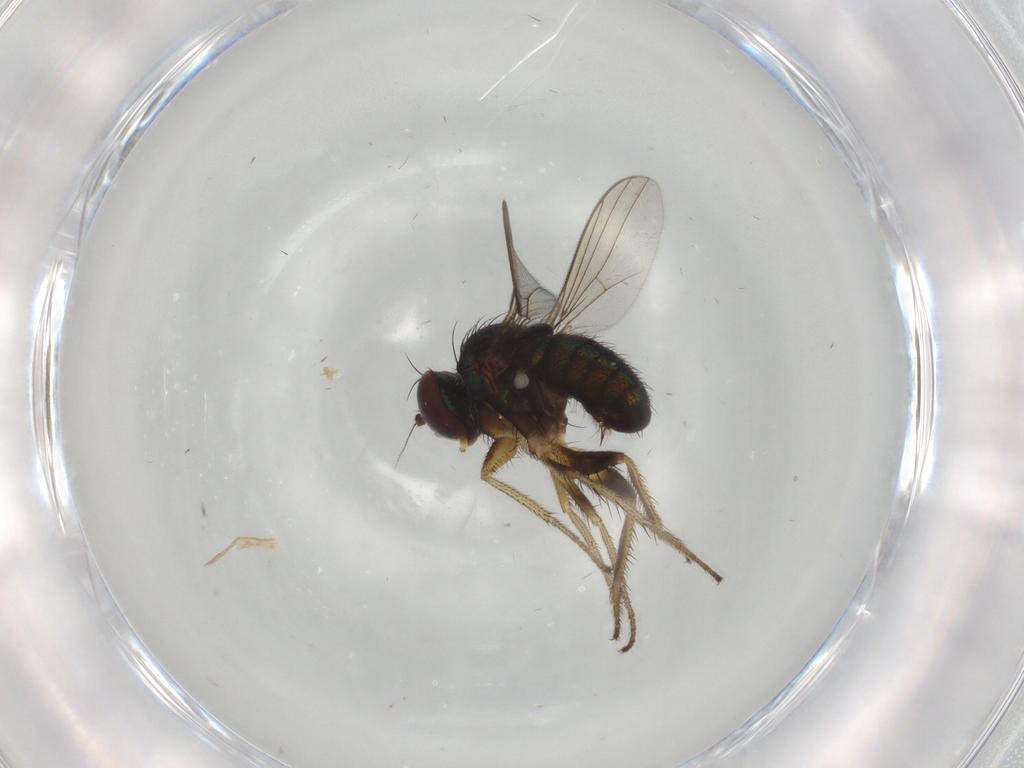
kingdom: Animalia
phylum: Arthropoda
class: Insecta
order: Diptera
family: Dolichopodidae
